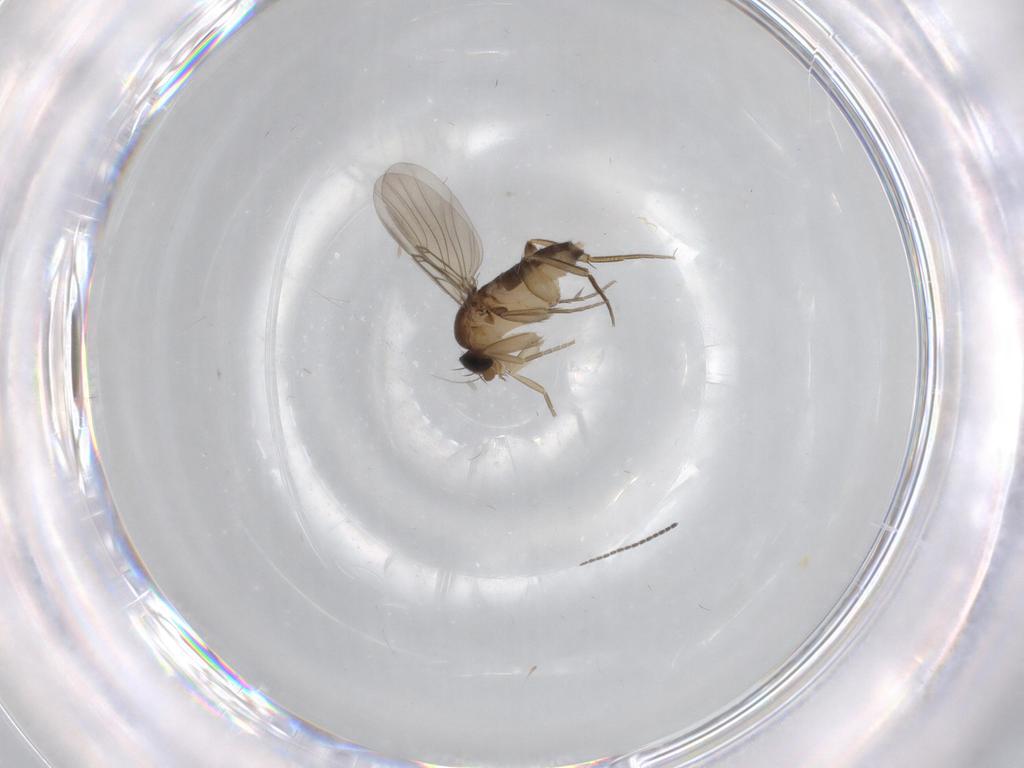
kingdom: Animalia
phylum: Arthropoda
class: Insecta
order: Diptera
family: Phoridae
